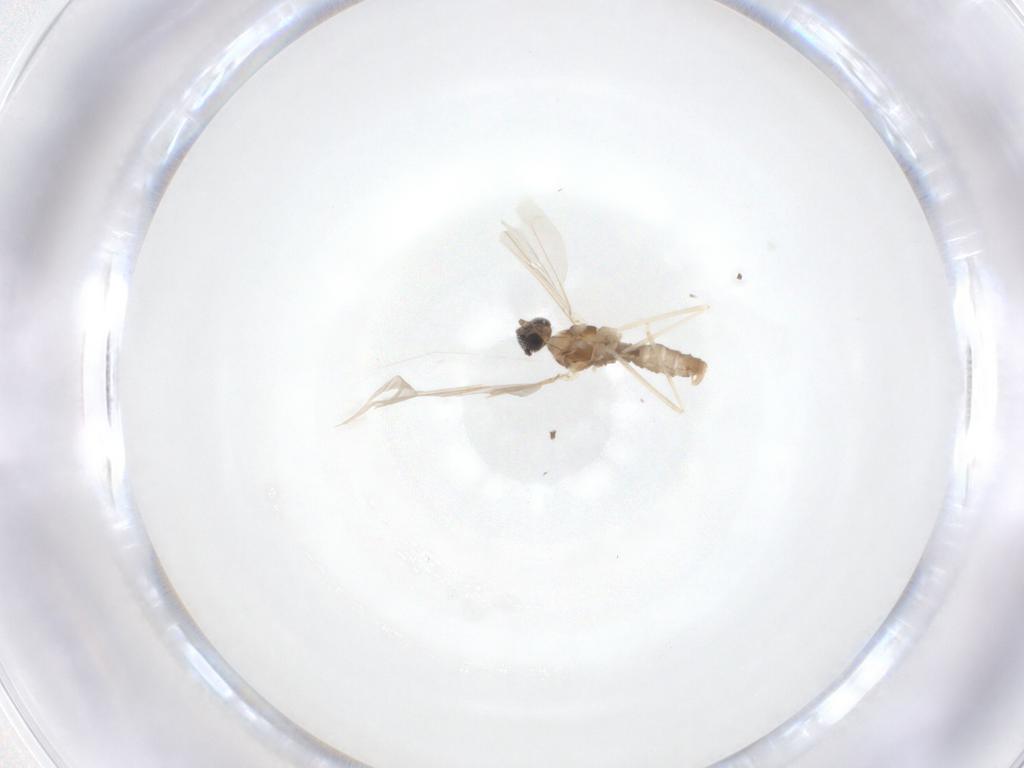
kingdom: Animalia
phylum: Arthropoda
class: Insecta
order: Diptera
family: Cecidomyiidae
